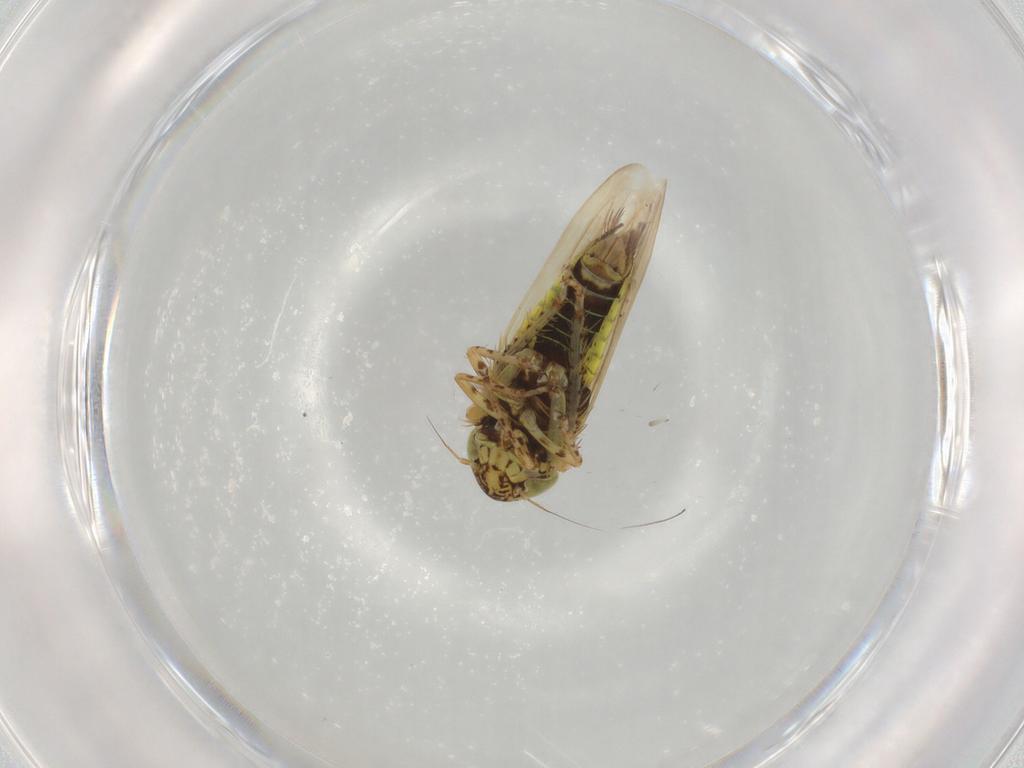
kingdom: Animalia
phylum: Arthropoda
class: Insecta
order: Hemiptera
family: Cicadellidae
